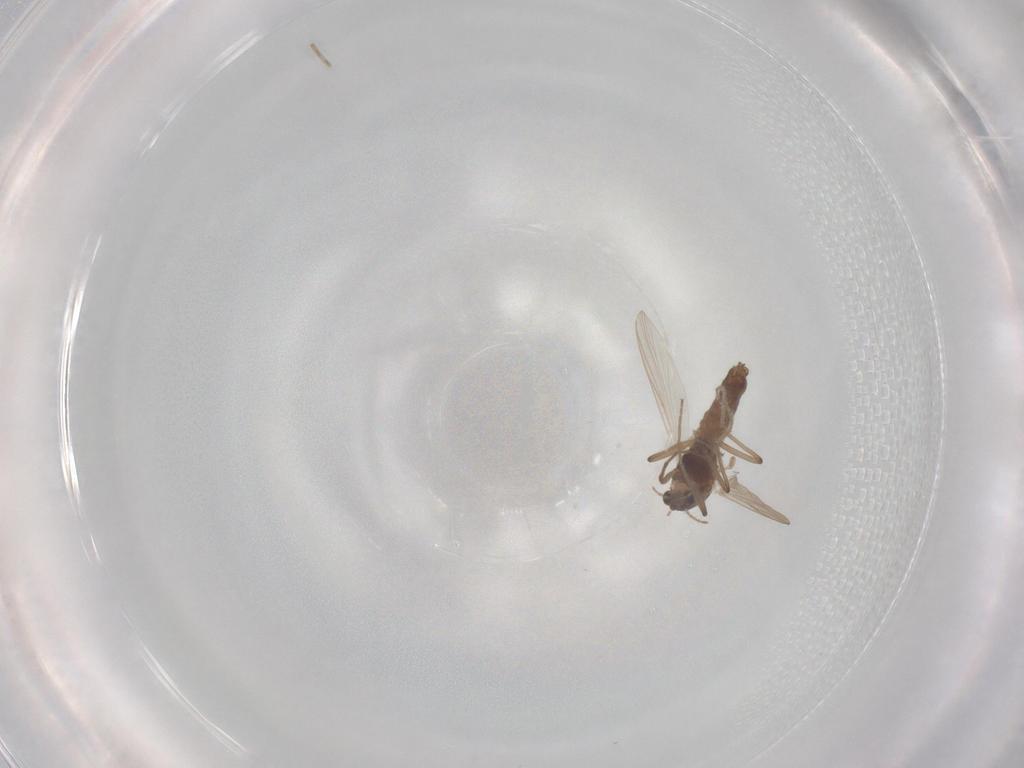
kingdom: Animalia
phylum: Arthropoda
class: Insecta
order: Diptera
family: Chironomidae
